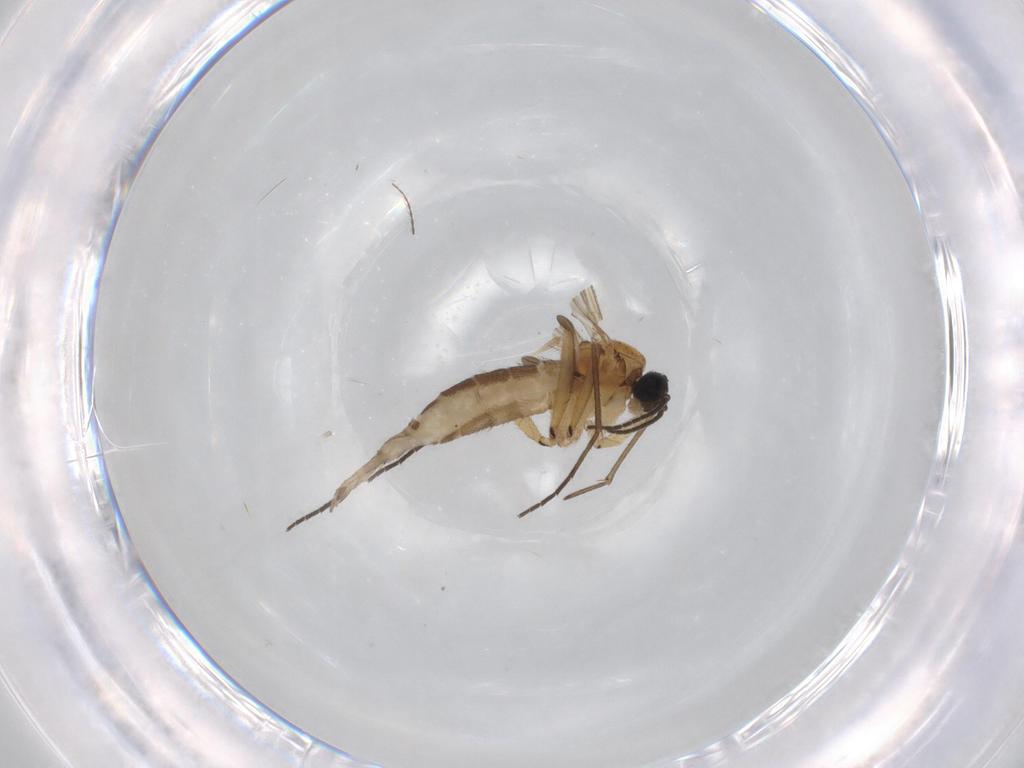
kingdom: Animalia
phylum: Arthropoda
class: Insecta
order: Diptera
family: Limoniidae
